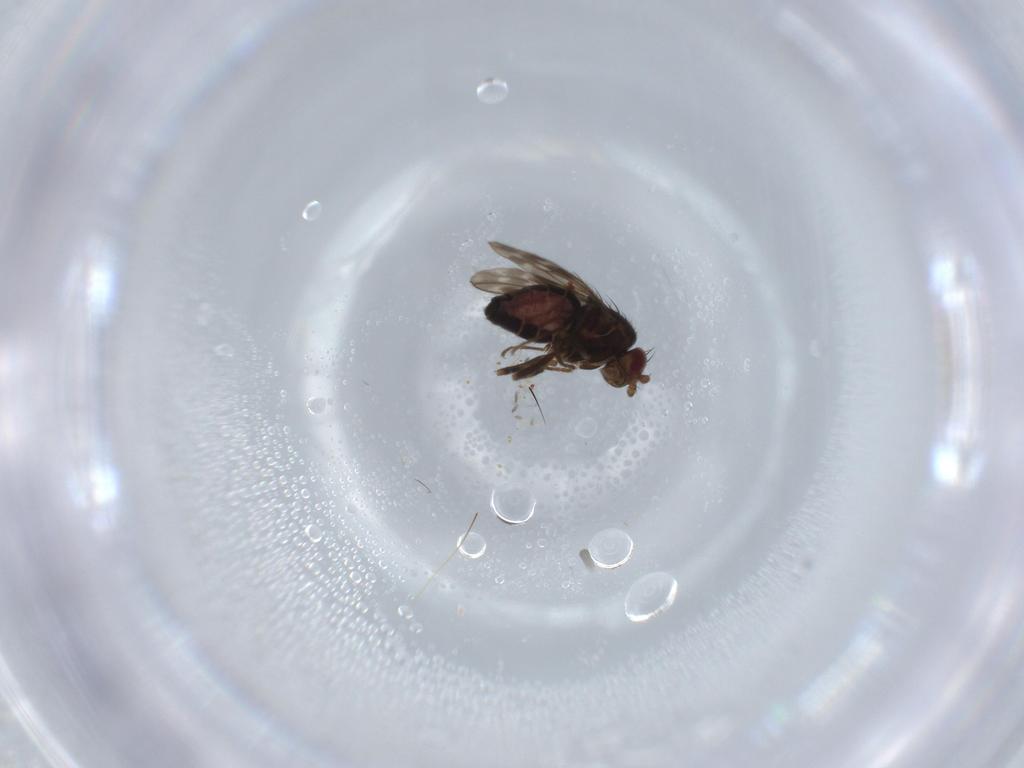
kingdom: Animalia
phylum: Arthropoda
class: Insecta
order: Diptera
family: Sphaeroceridae
